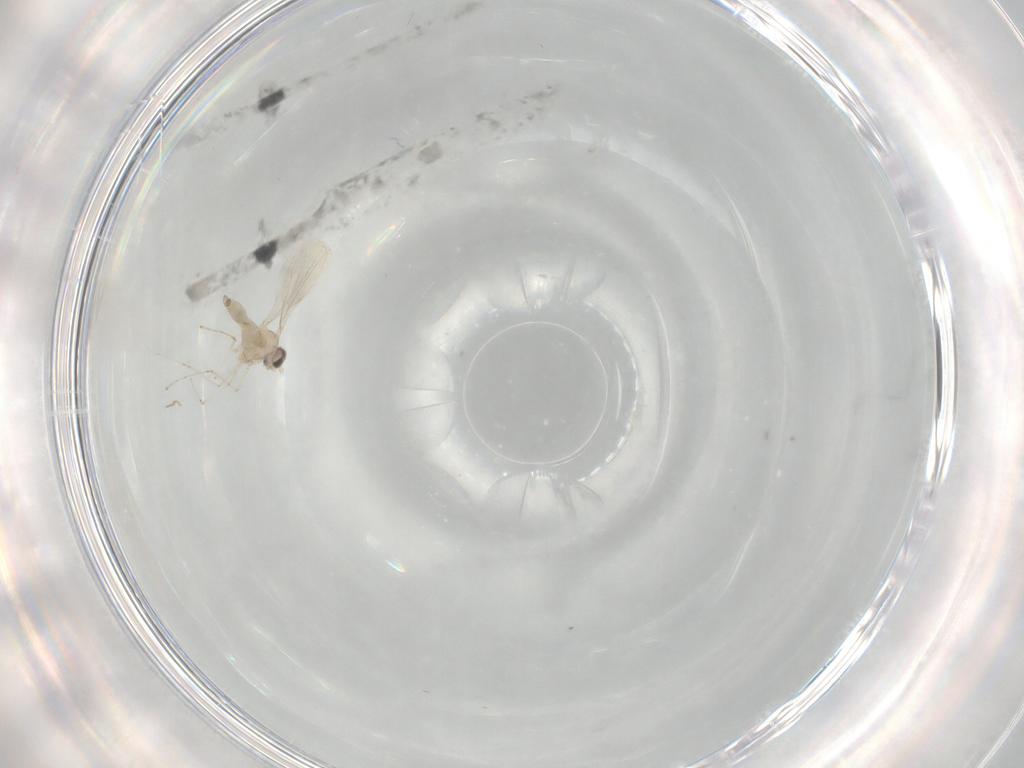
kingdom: Animalia
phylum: Arthropoda
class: Insecta
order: Diptera
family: Cecidomyiidae
